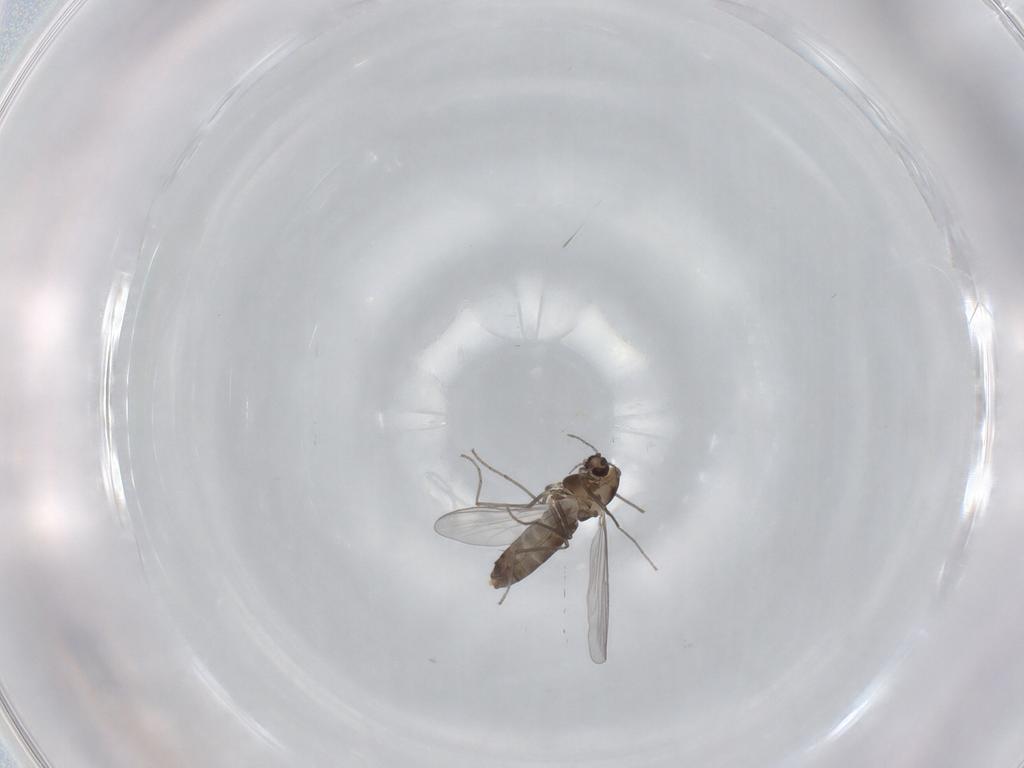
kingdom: Animalia
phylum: Arthropoda
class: Insecta
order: Diptera
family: Chironomidae
